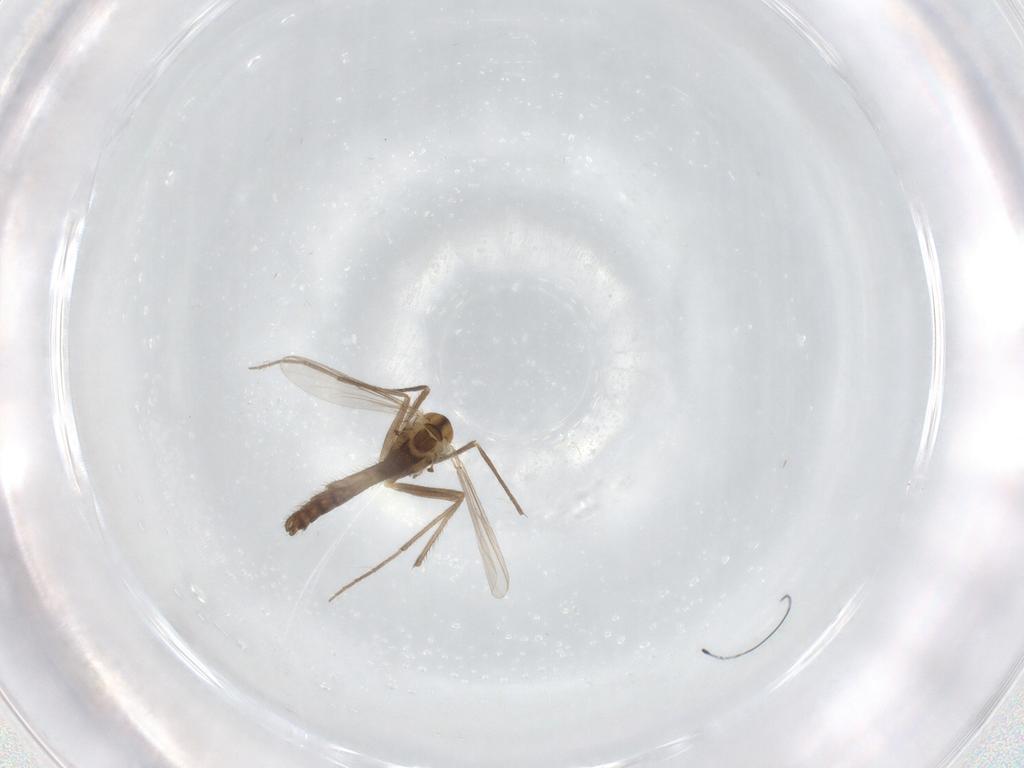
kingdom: Animalia
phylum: Arthropoda
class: Insecta
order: Diptera
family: Chironomidae
